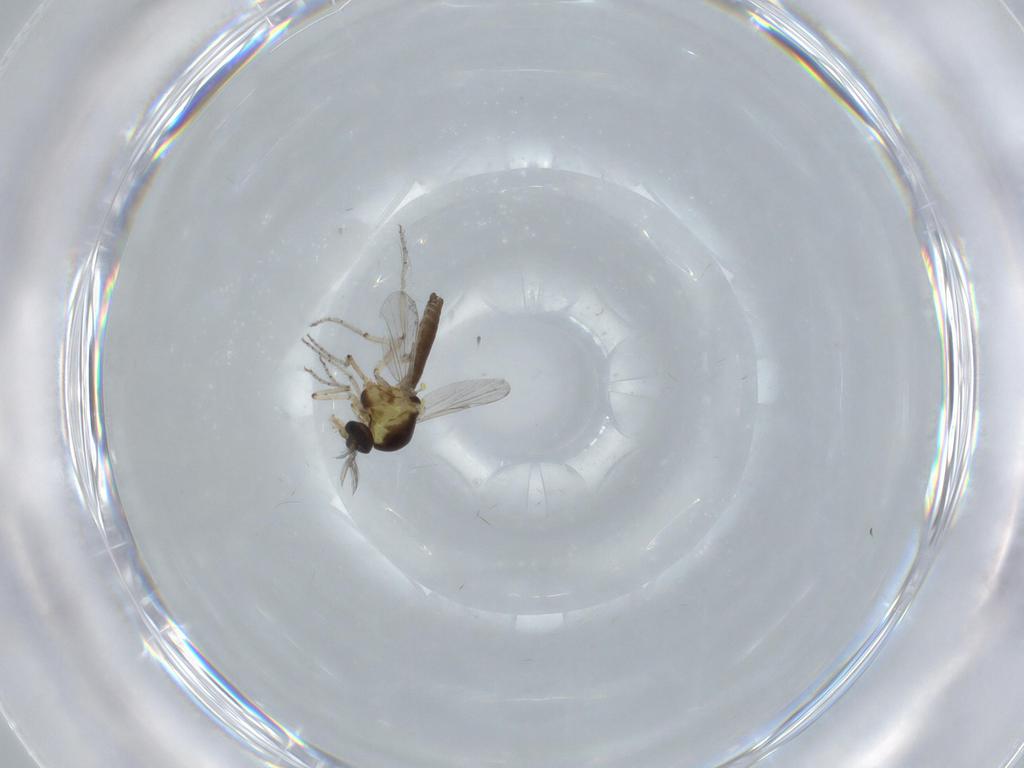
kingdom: Animalia
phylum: Arthropoda
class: Insecta
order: Diptera
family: Ceratopogonidae
